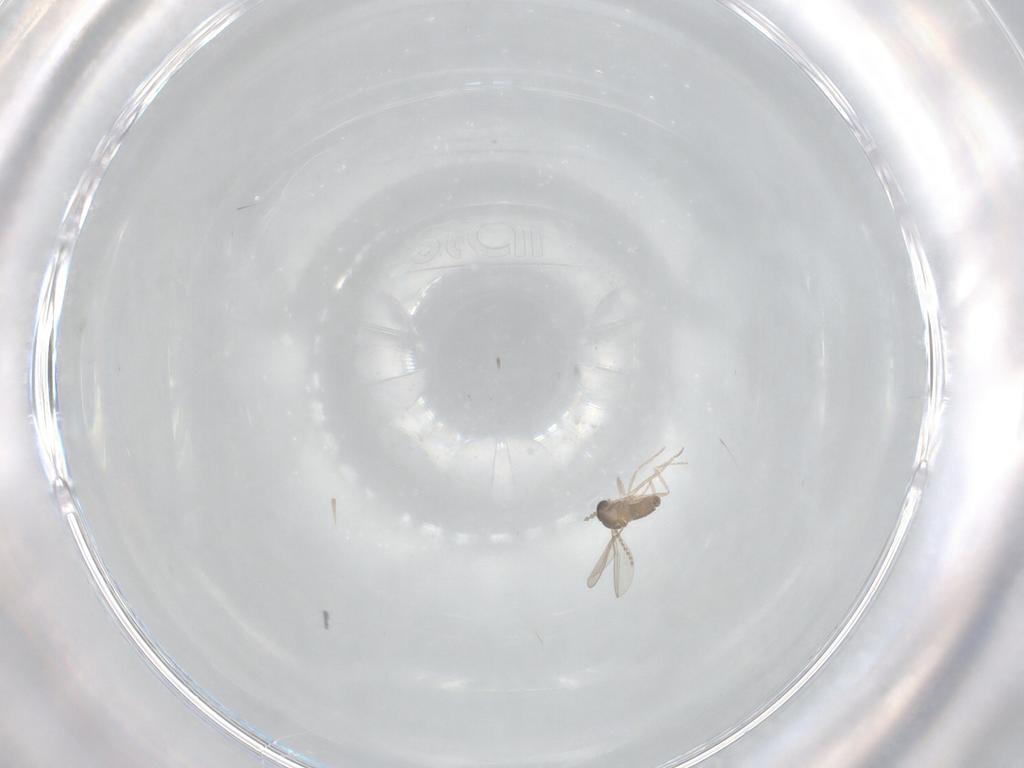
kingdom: Animalia
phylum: Arthropoda
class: Insecta
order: Diptera
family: Cecidomyiidae
